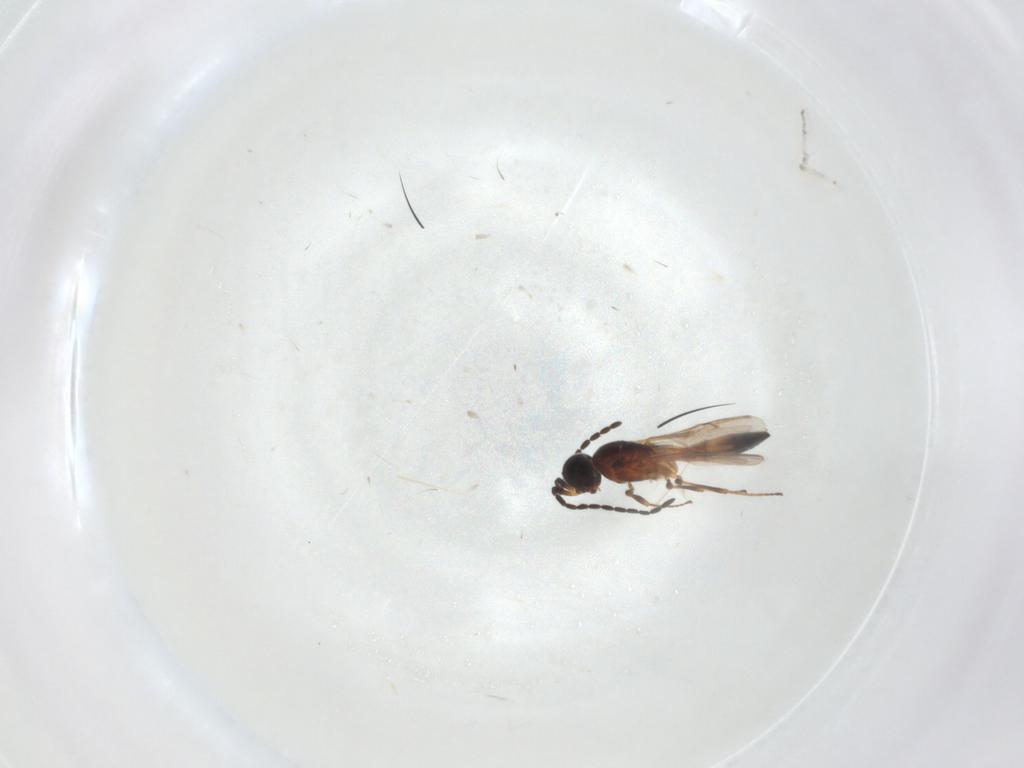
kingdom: Animalia
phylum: Arthropoda
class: Insecta
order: Hymenoptera
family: Scelionidae
